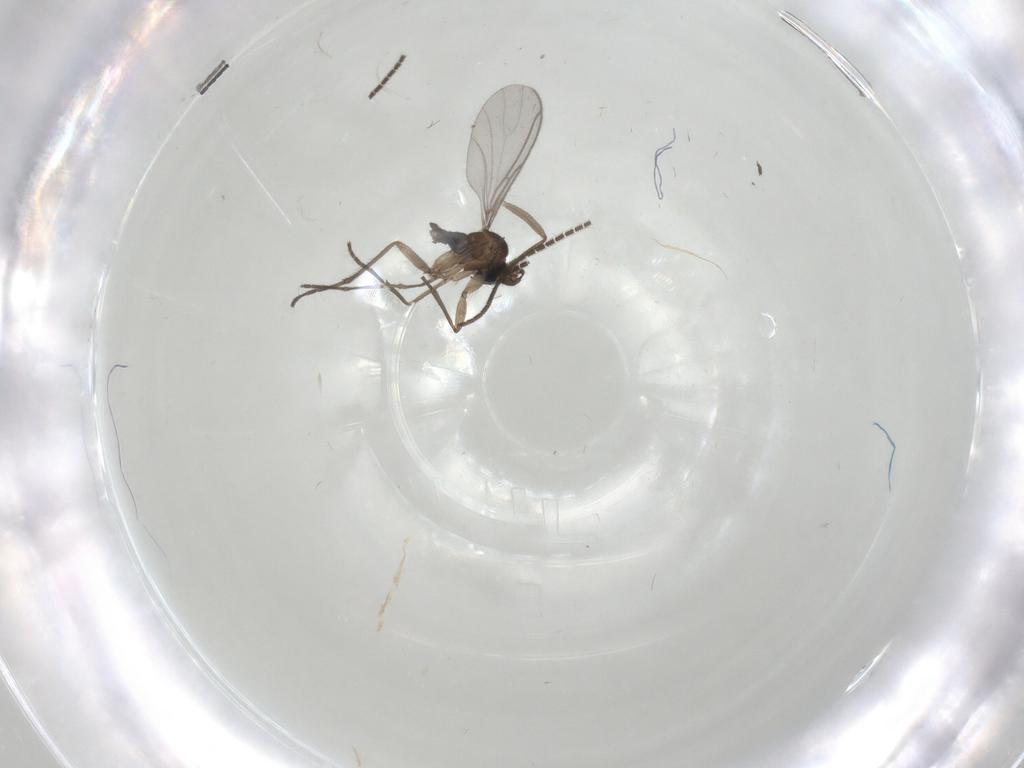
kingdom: Animalia
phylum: Arthropoda
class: Insecta
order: Diptera
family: Sciaridae
